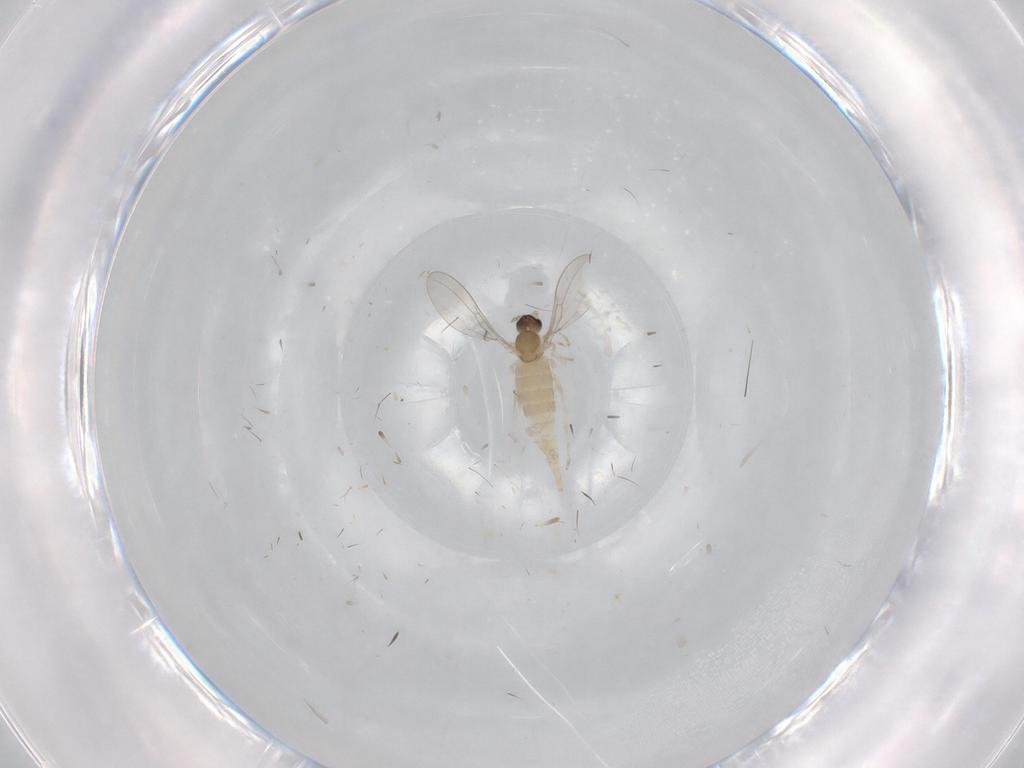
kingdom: Animalia
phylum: Arthropoda
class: Insecta
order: Diptera
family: Cecidomyiidae
